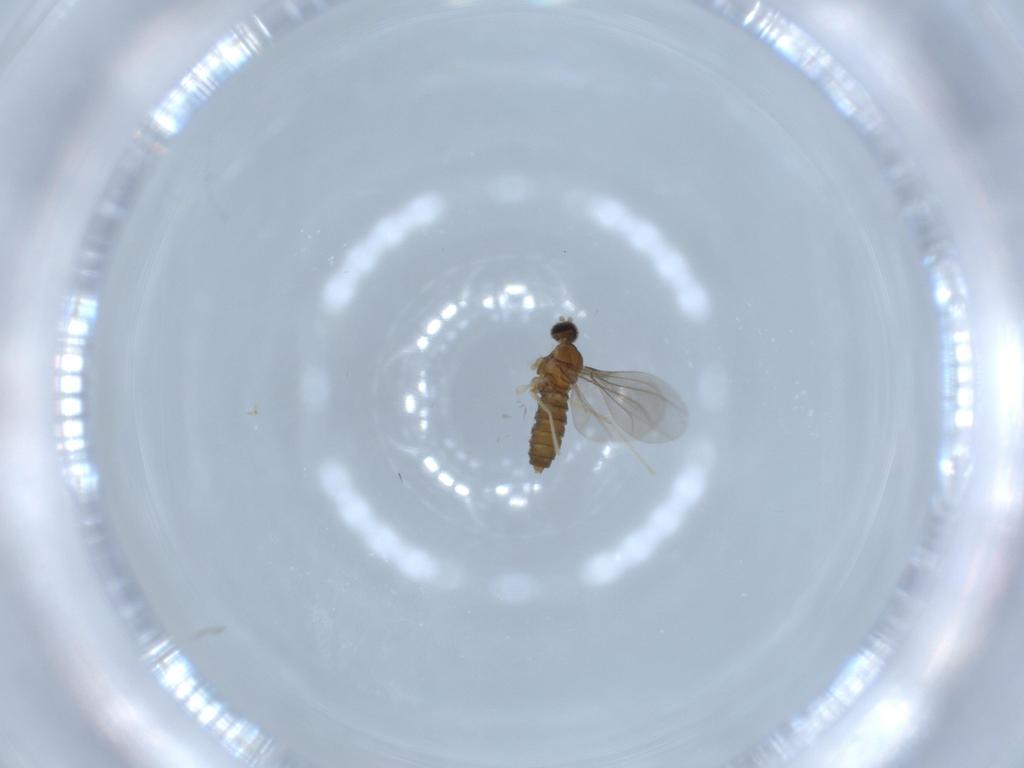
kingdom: Animalia
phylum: Arthropoda
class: Insecta
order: Diptera
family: Cecidomyiidae
